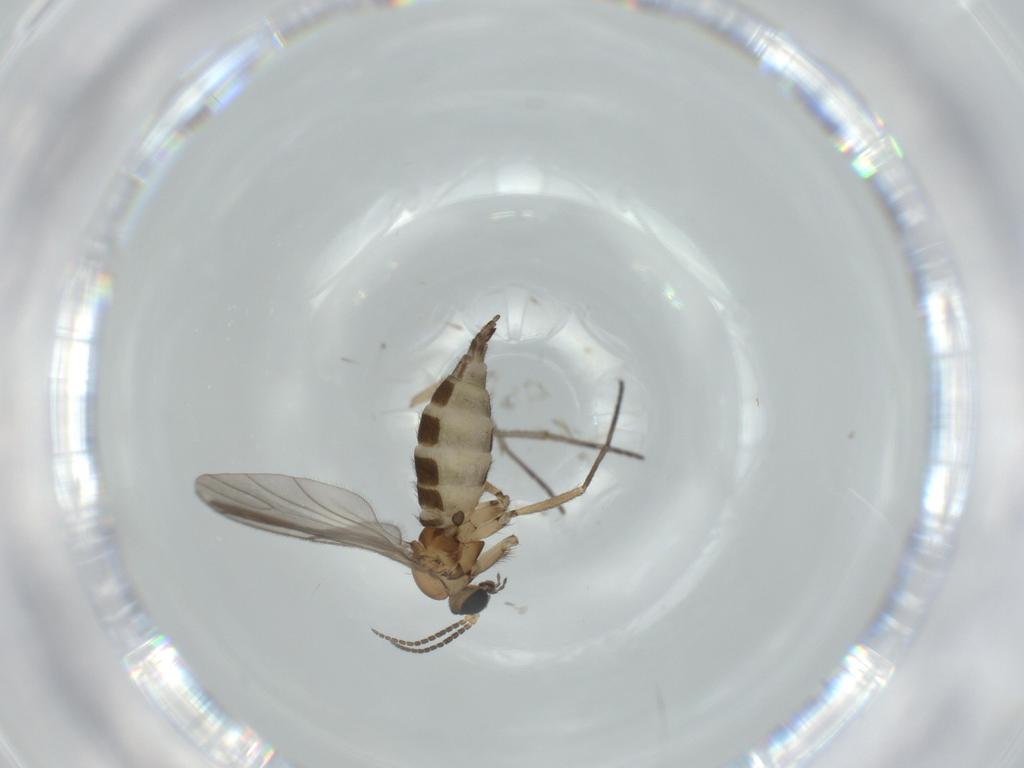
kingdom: Animalia
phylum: Arthropoda
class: Insecta
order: Diptera
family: Sciaridae
